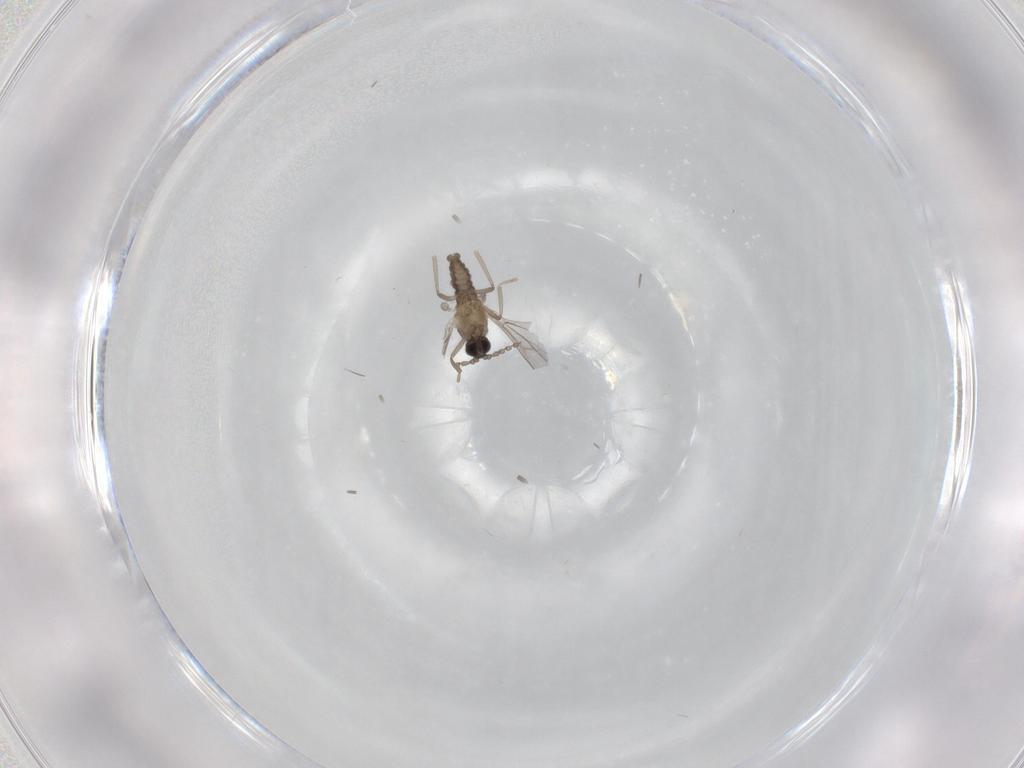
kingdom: Animalia
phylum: Arthropoda
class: Insecta
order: Diptera
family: Cecidomyiidae
